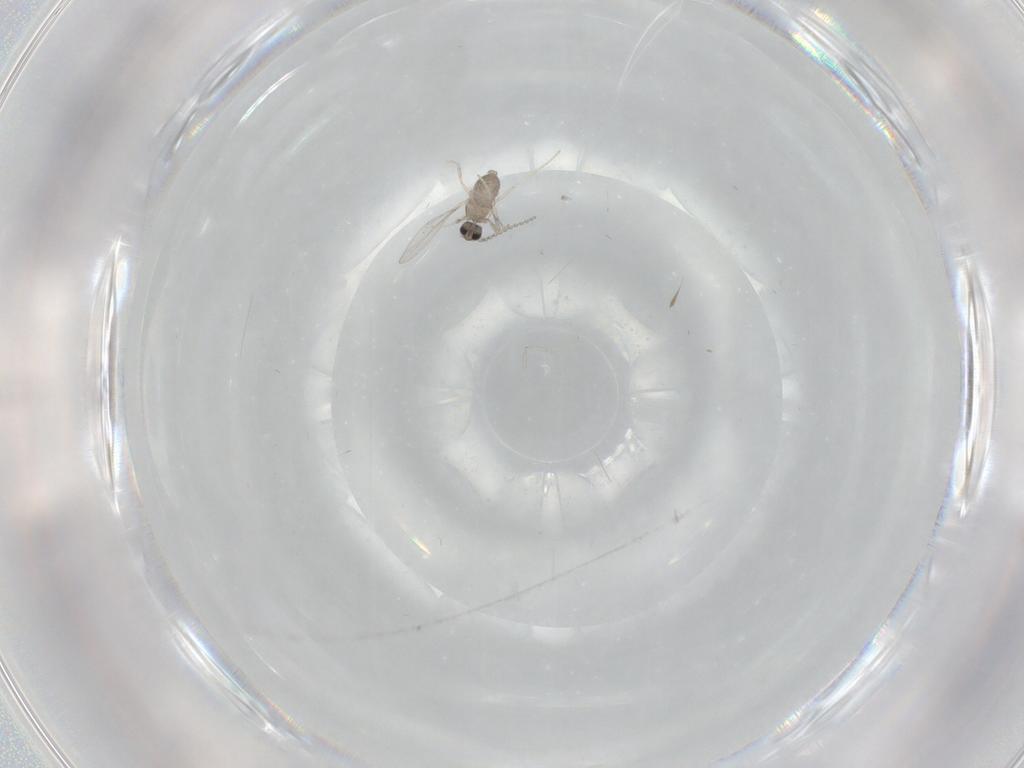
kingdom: Animalia
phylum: Arthropoda
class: Insecta
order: Diptera
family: Cecidomyiidae
